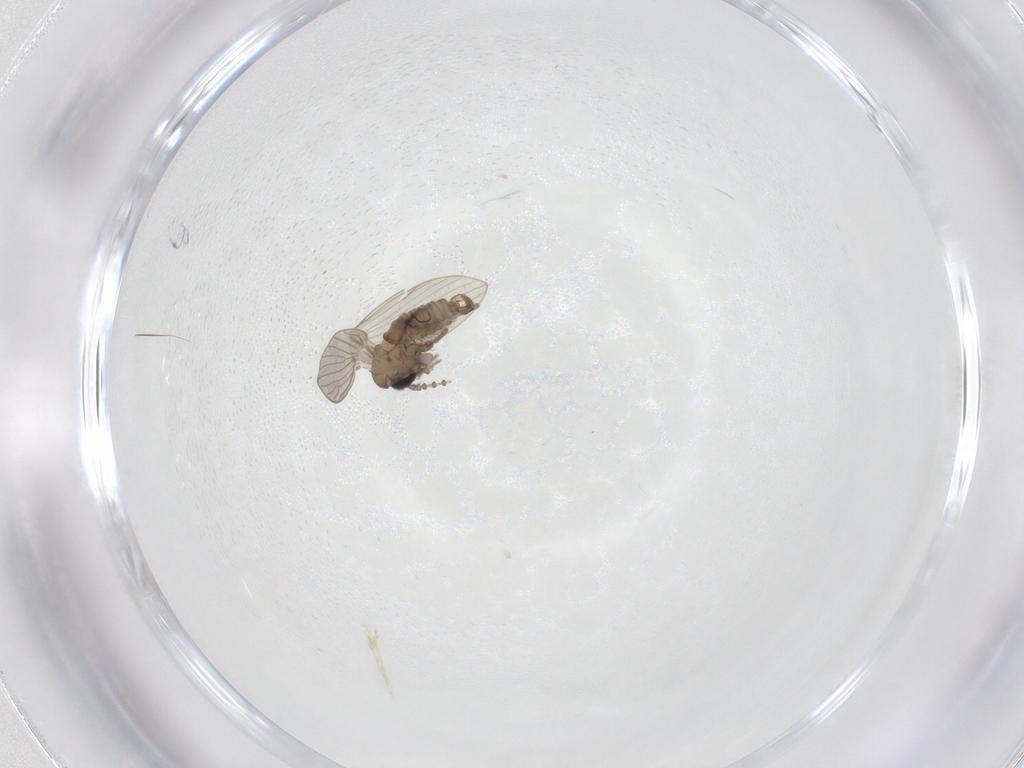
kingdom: Animalia
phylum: Arthropoda
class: Insecta
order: Diptera
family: Sciaridae
